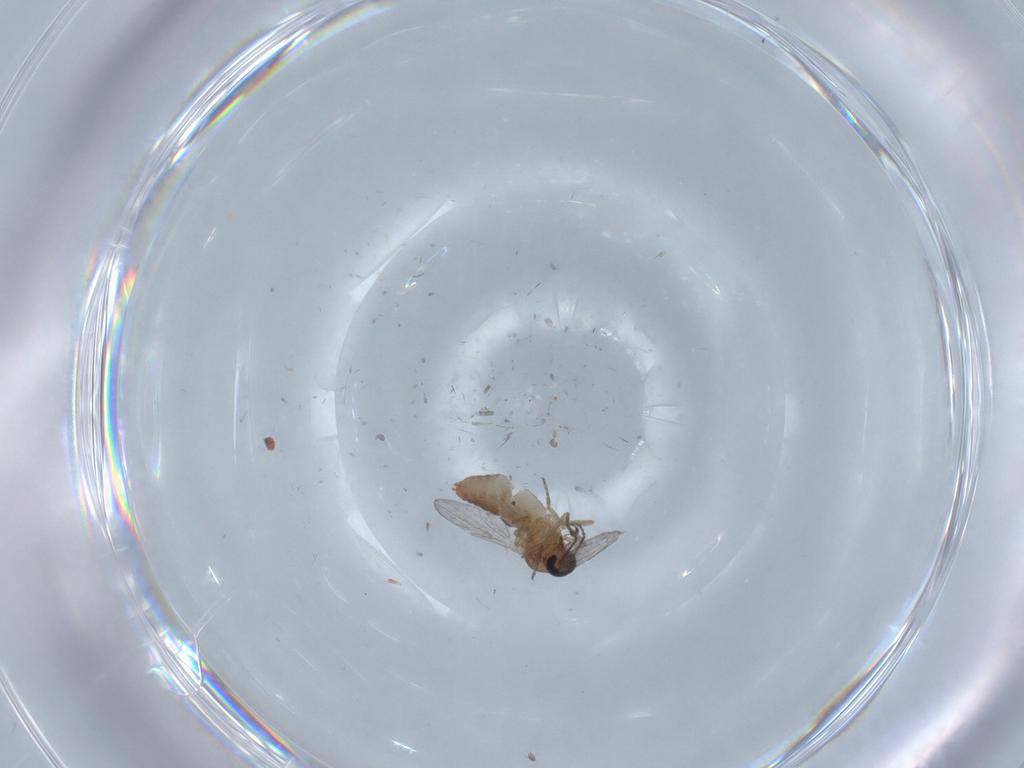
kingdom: Animalia
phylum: Arthropoda
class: Insecta
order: Diptera
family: Ceratopogonidae
